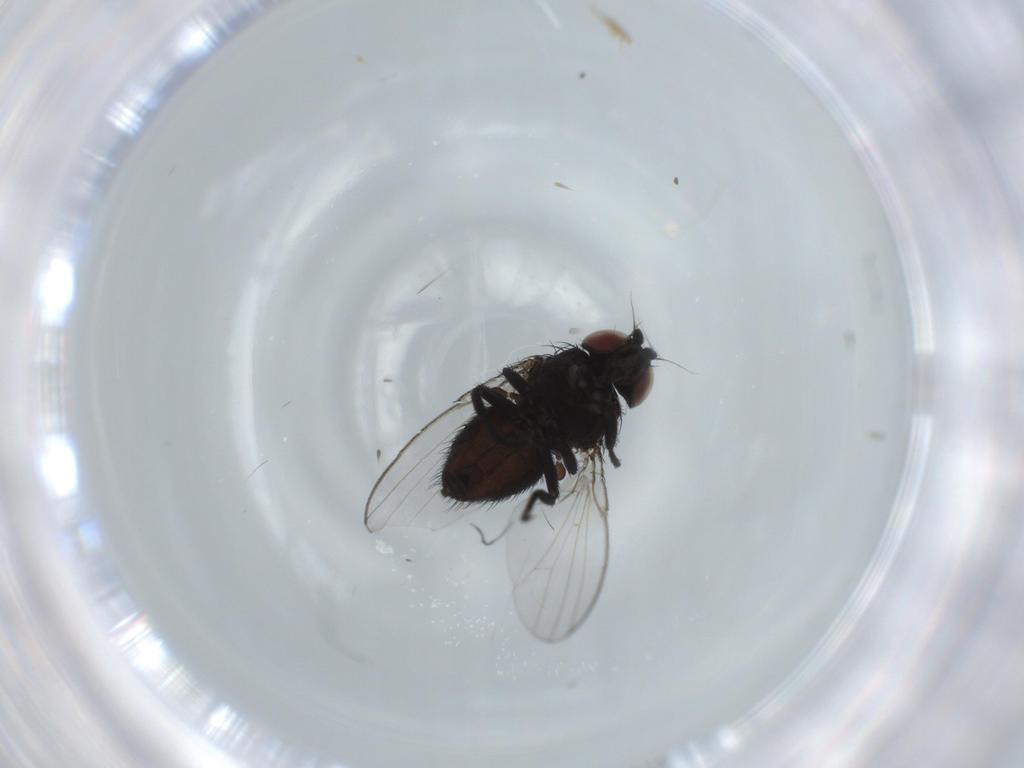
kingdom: Animalia
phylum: Arthropoda
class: Insecta
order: Diptera
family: Milichiidae
